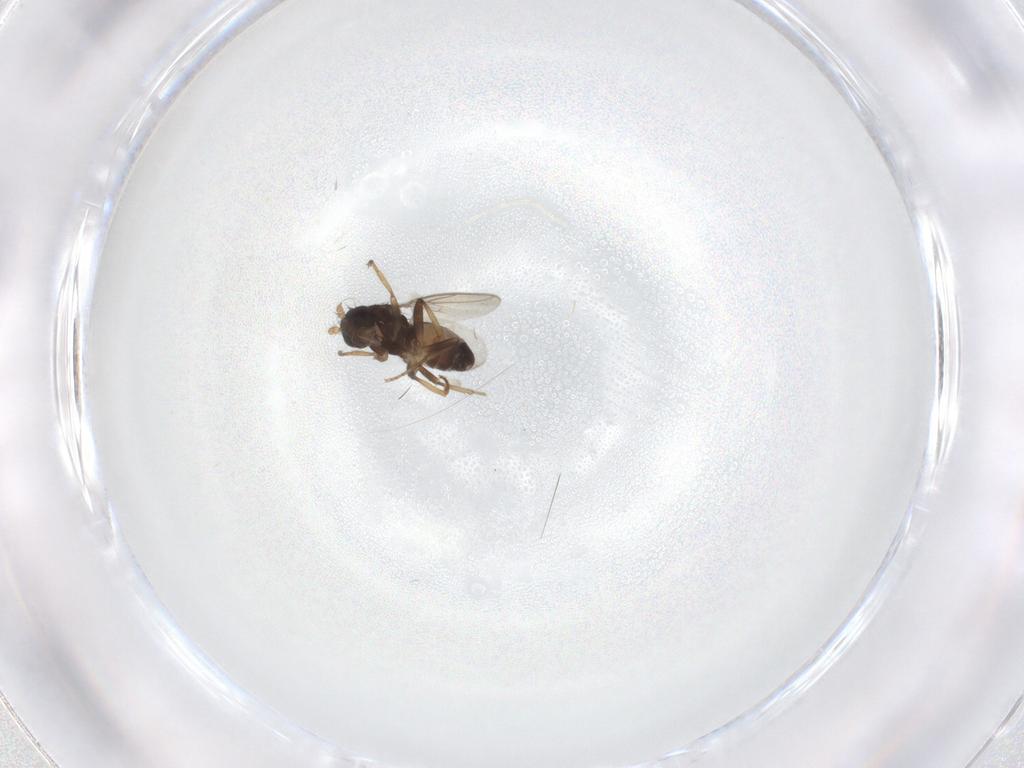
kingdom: Animalia
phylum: Arthropoda
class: Insecta
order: Diptera
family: Sphaeroceridae
